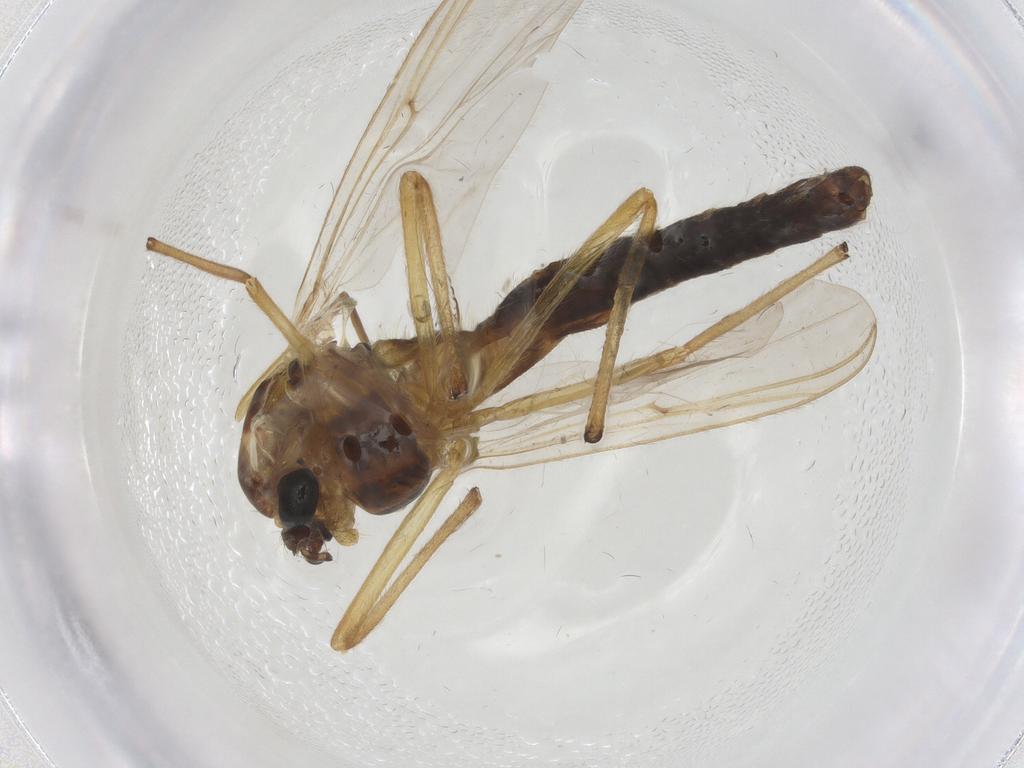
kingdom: Animalia
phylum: Arthropoda
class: Insecta
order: Diptera
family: Chironomidae
